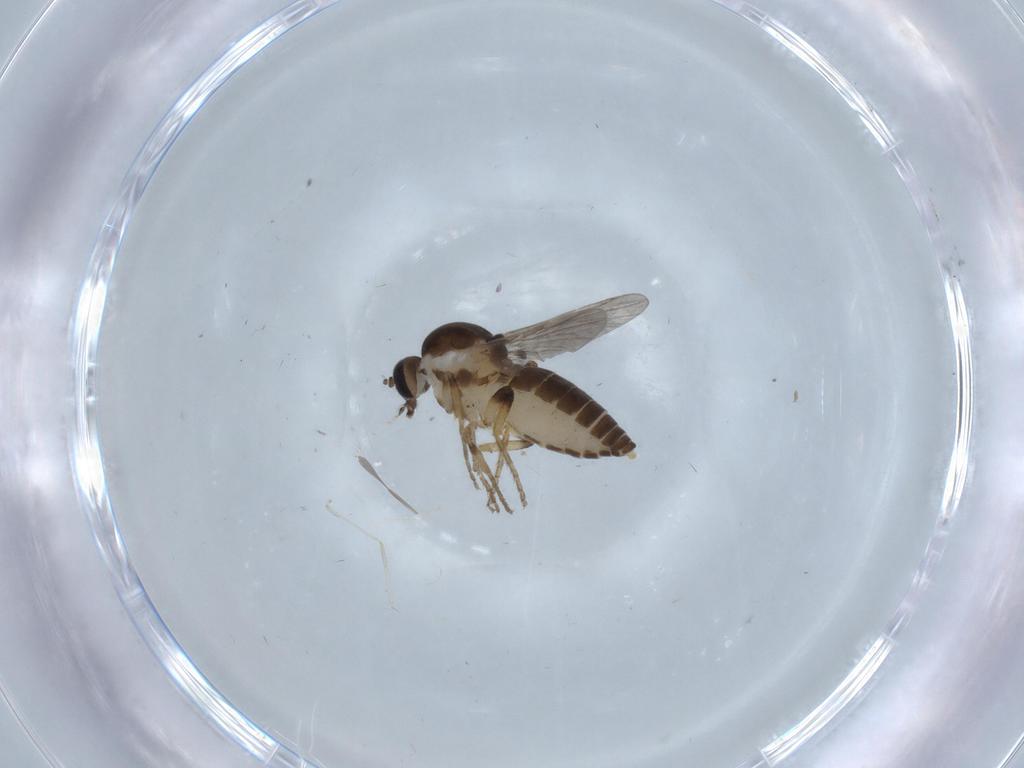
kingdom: Animalia
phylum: Arthropoda
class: Insecta
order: Diptera
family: Ceratopogonidae
